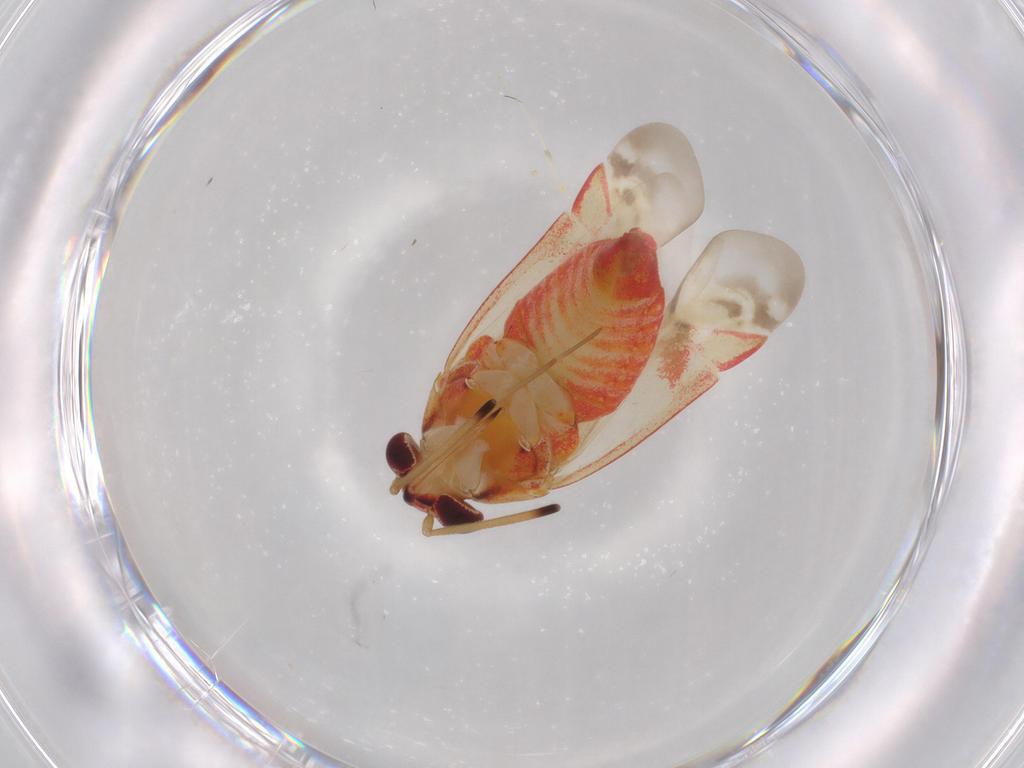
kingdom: Animalia
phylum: Arthropoda
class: Insecta
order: Hemiptera
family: Miridae
